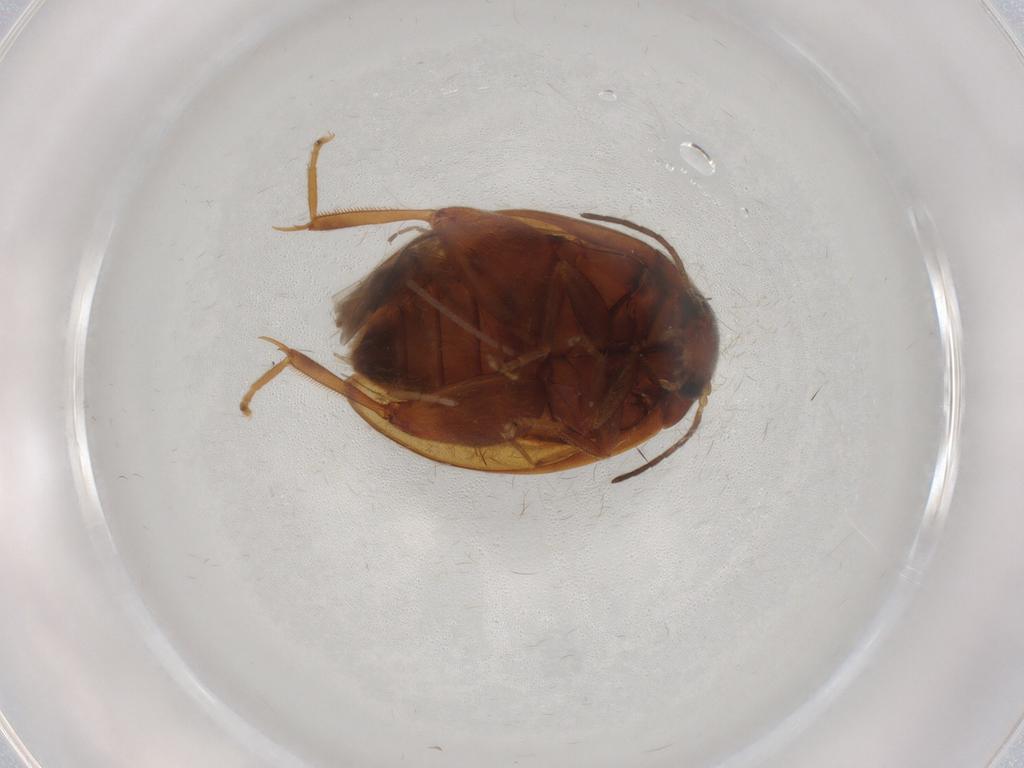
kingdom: Animalia
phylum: Arthropoda
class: Insecta
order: Coleoptera
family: Scirtidae
